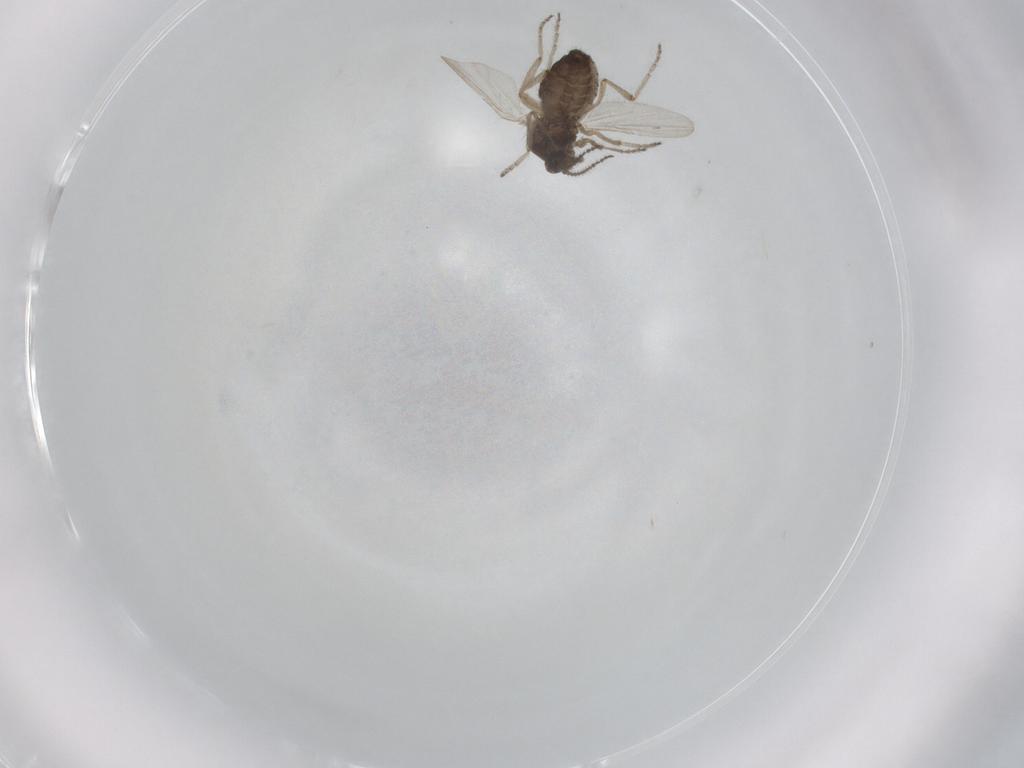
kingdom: Animalia
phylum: Arthropoda
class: Insecta
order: Diptera
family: Ceratopogonidae
